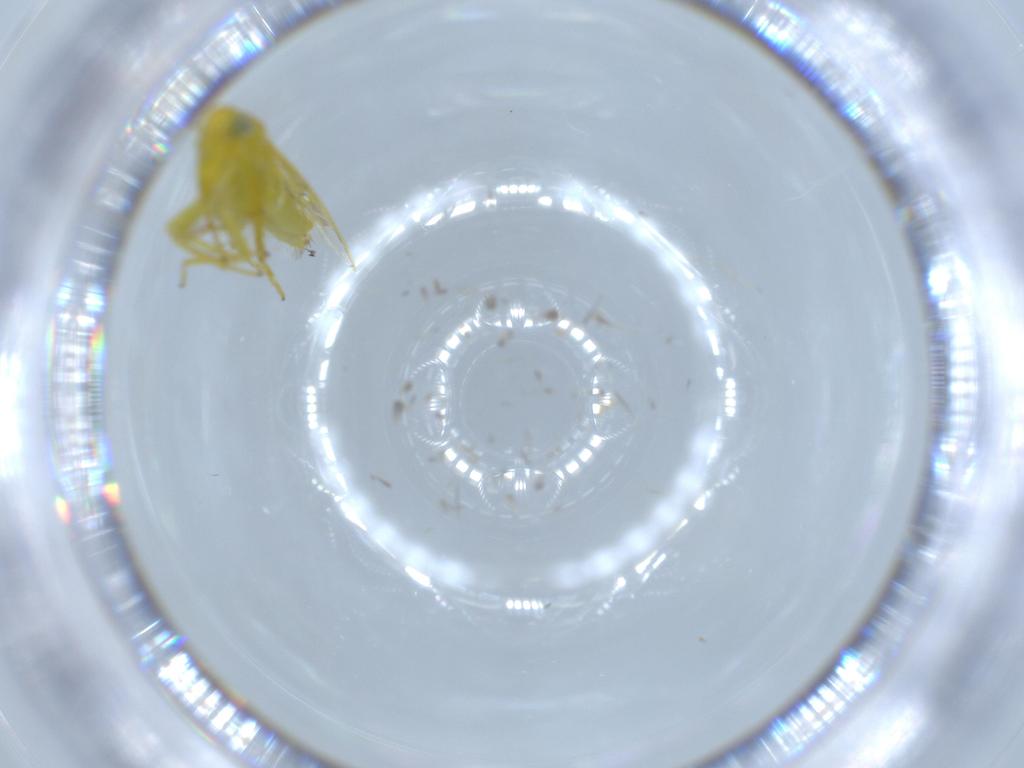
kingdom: Animalia
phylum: Arthropoda
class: Insecta
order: Hemiptera
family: Cicadellidae
